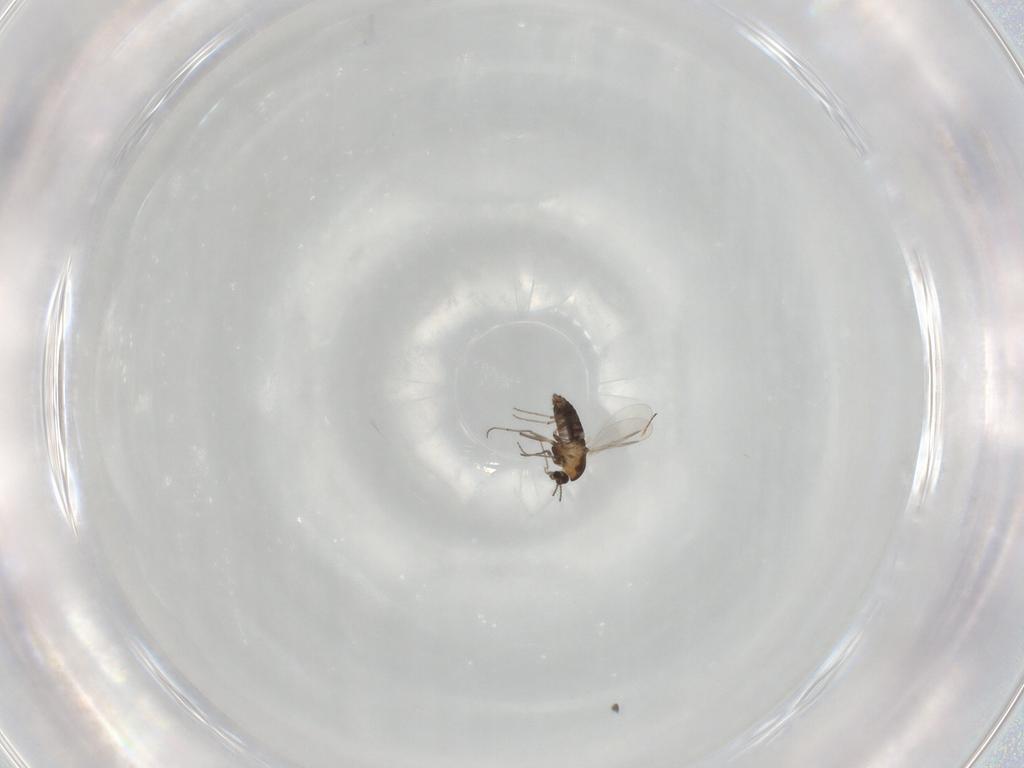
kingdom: Animalia
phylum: Arthropoda
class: Insecta
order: Diptera
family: Chironomidae
